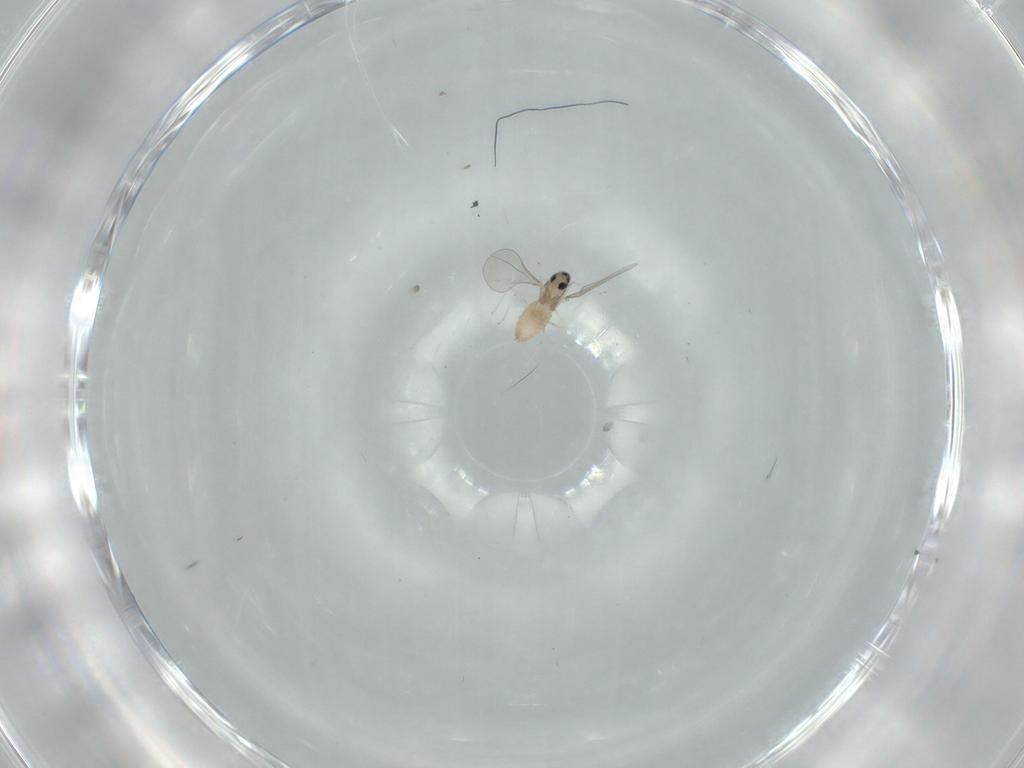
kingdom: Animalia
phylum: Arthropoda
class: Insecta
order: Diptera
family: Cecidomyiidae
